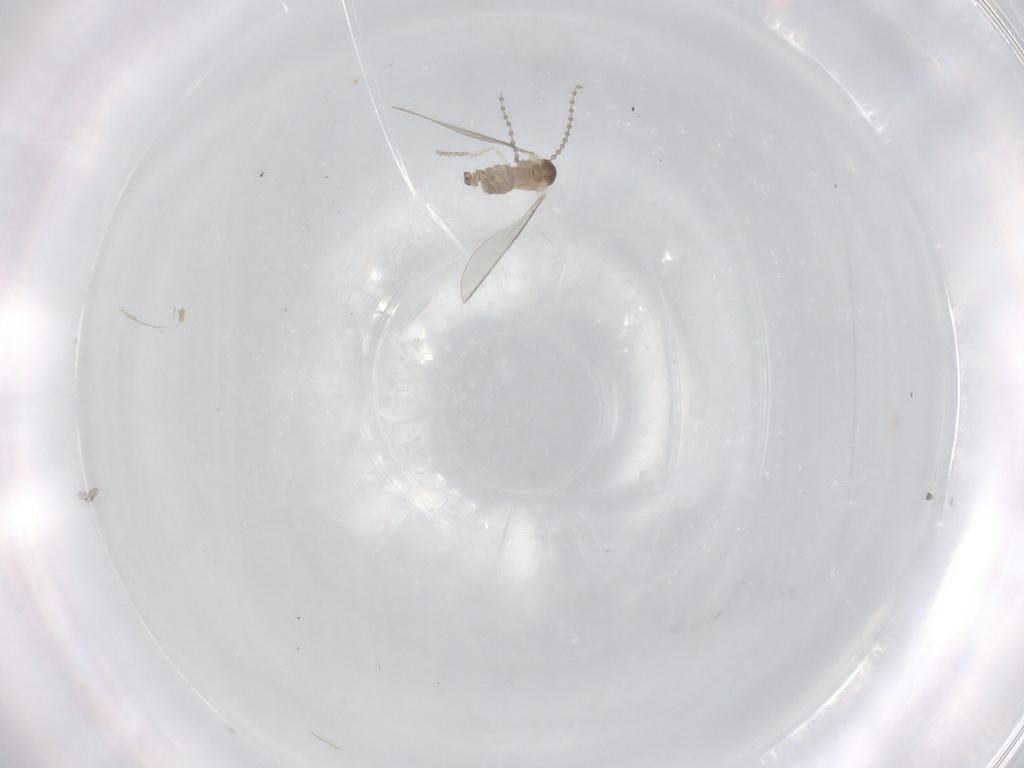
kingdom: Animalia
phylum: Arthropoda
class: Insecta
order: Diptera
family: Cecidomyiidae
